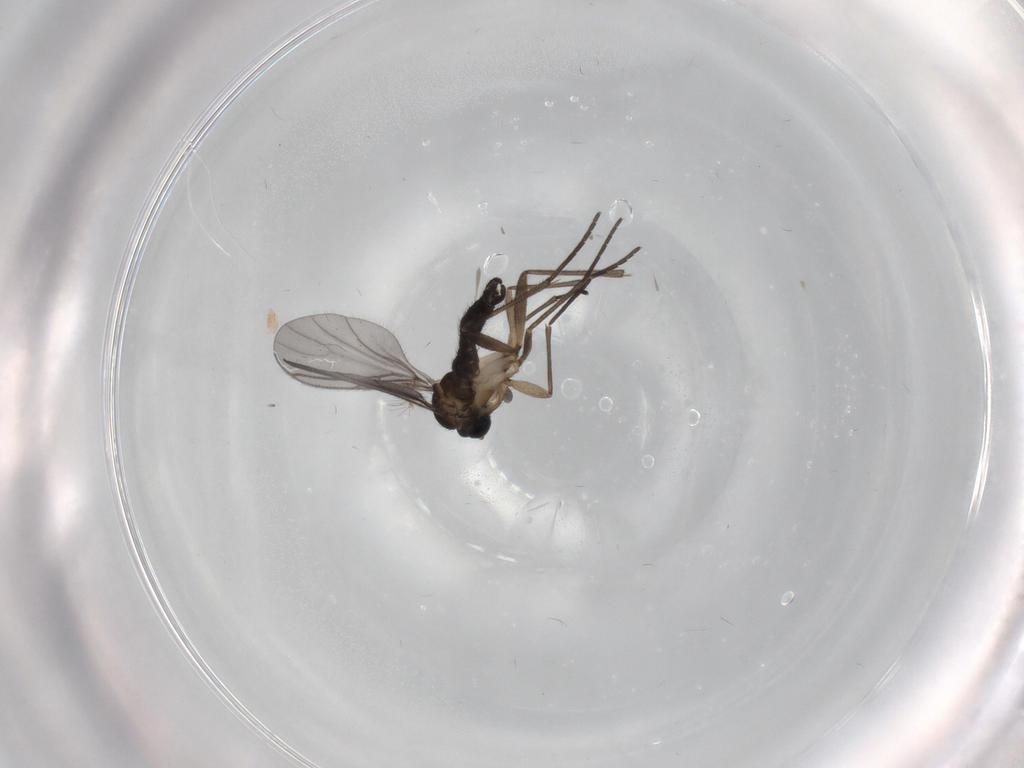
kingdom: Animalia
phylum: Arthropoda
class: Insecta
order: Diptera
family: Sciaridae
